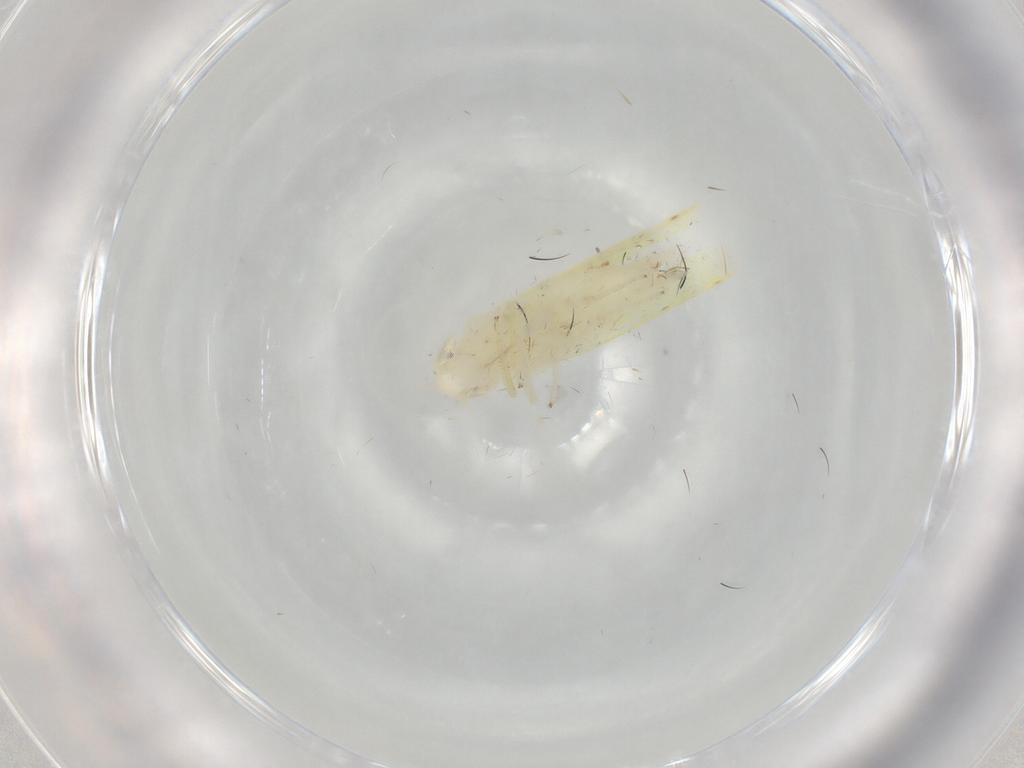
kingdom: Animalia
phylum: Arthropoda
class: Insecta
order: Hemiptera
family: Cicadellidae
